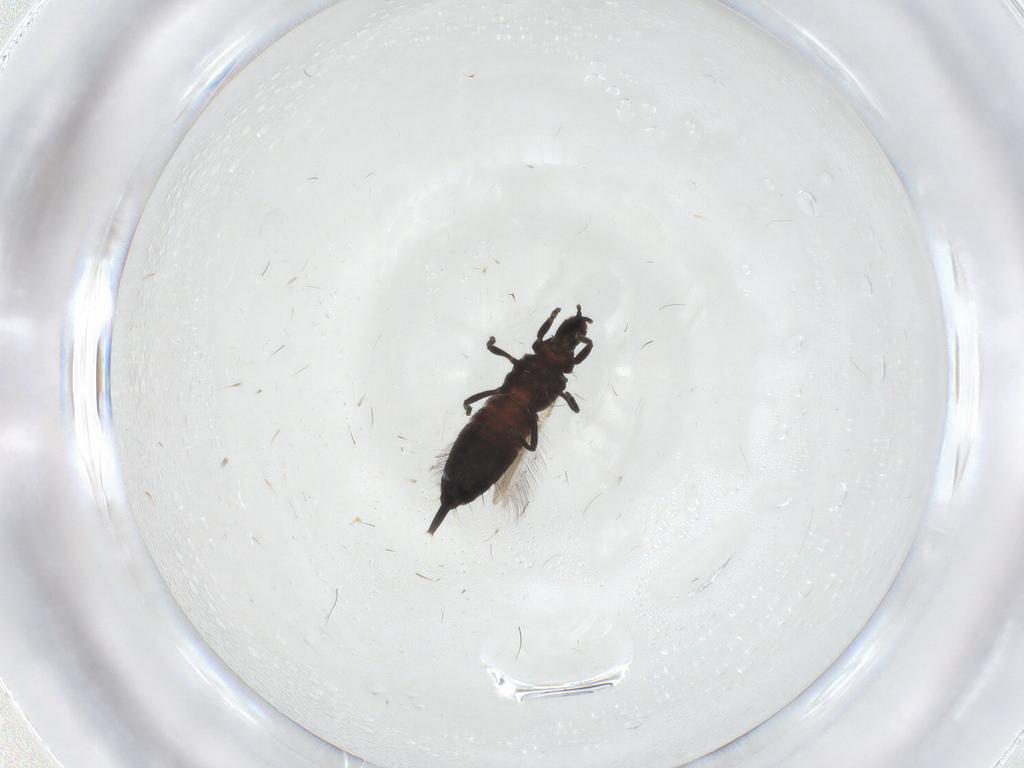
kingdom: Animalia
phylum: Arthropoda
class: Insecta
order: Thysanoptera
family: Phlaeothripidae
